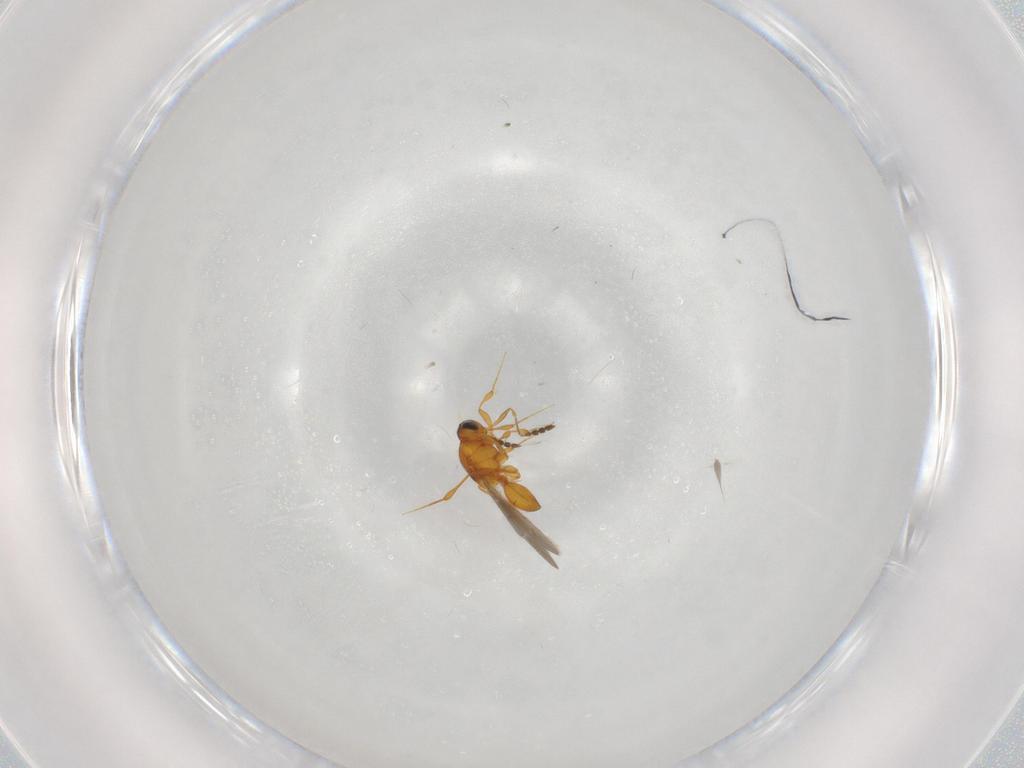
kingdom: Animalia
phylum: Arthropoda
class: Insecta
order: Hymenoptera
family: Platygastridae
